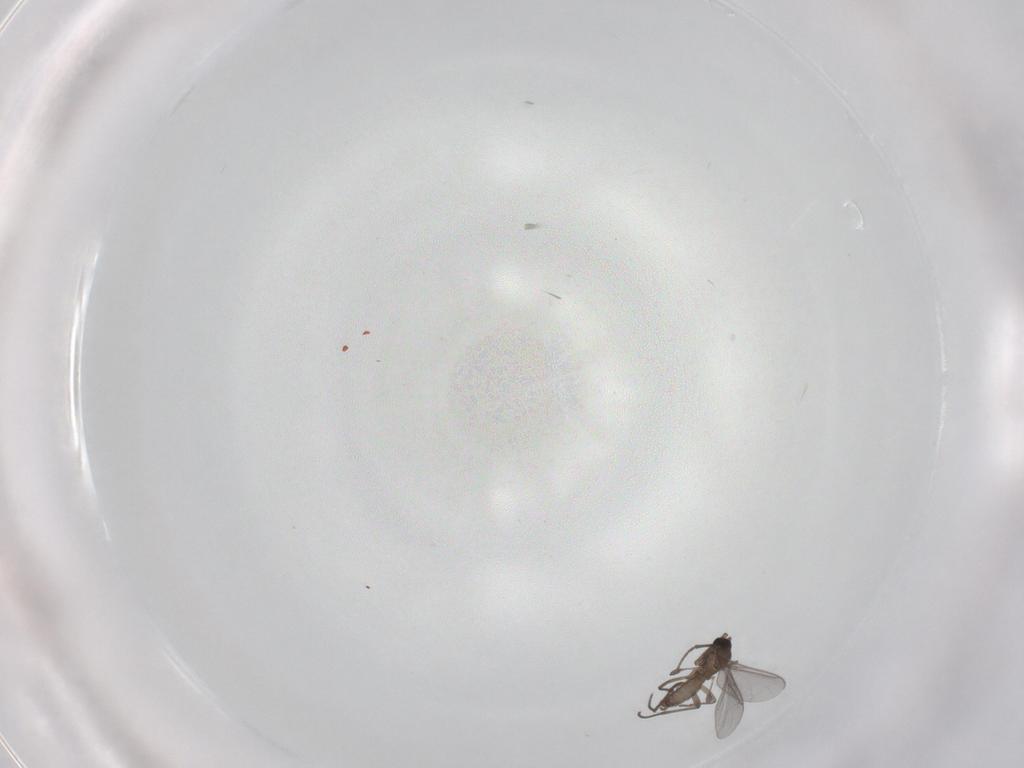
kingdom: Animalia
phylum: Arthropoda
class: Insecta
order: Diptera
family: Sciaridae
